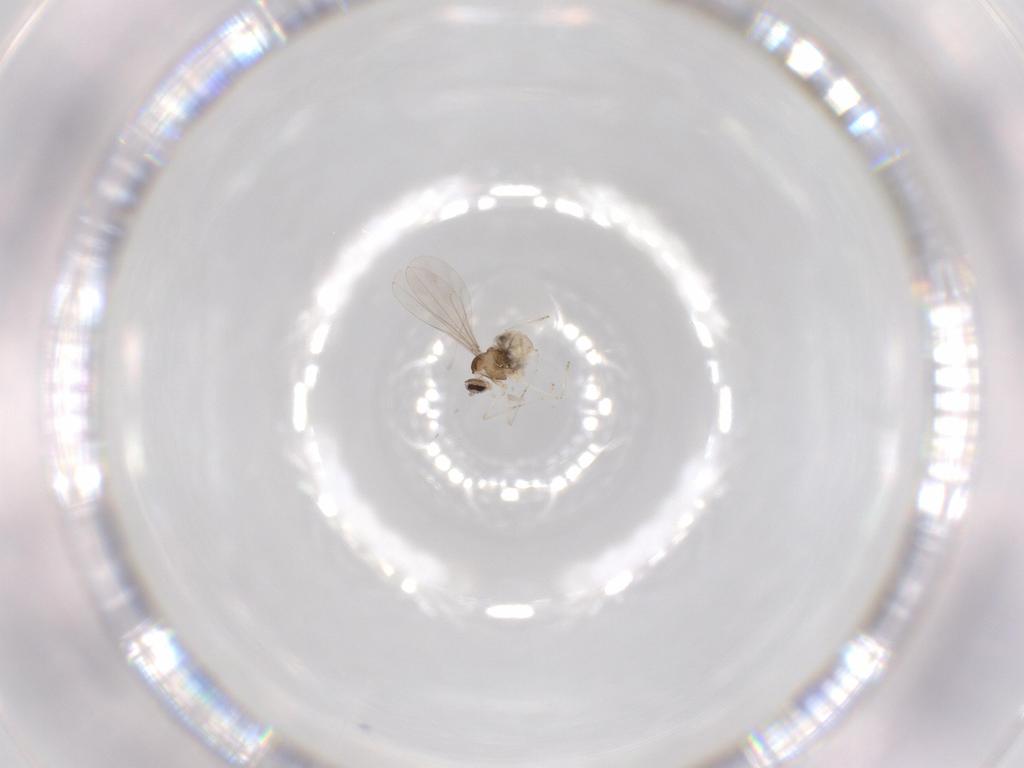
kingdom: Animalia
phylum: Arthropoda
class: Insecta
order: Diptera
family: Cecidomyiidae
